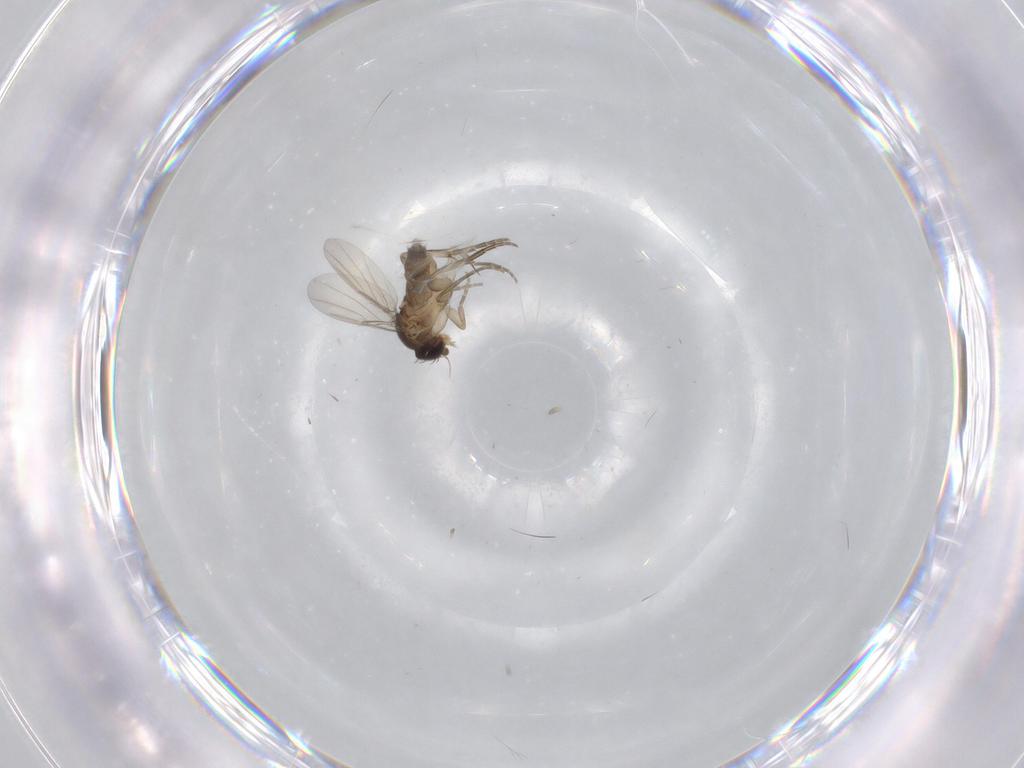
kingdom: Animalia
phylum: Arthropoda
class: Insecta
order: Diptera
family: Phoridae
